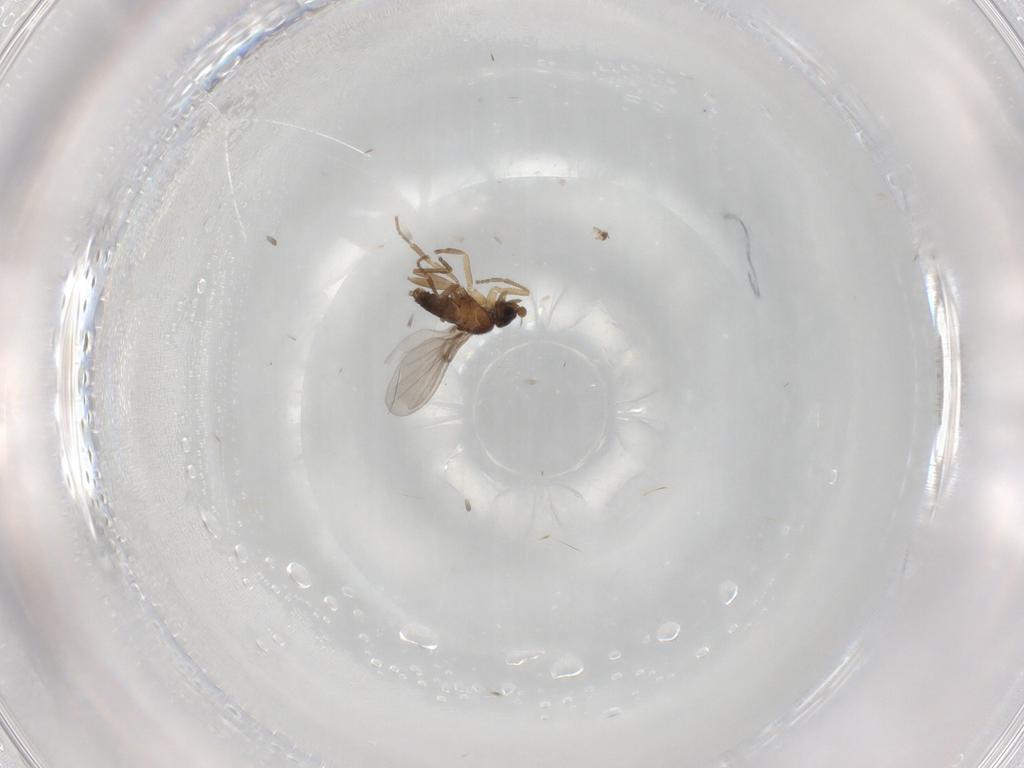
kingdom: Animalia
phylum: Arthropoda
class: Insecta
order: Diptera
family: Phoridae
